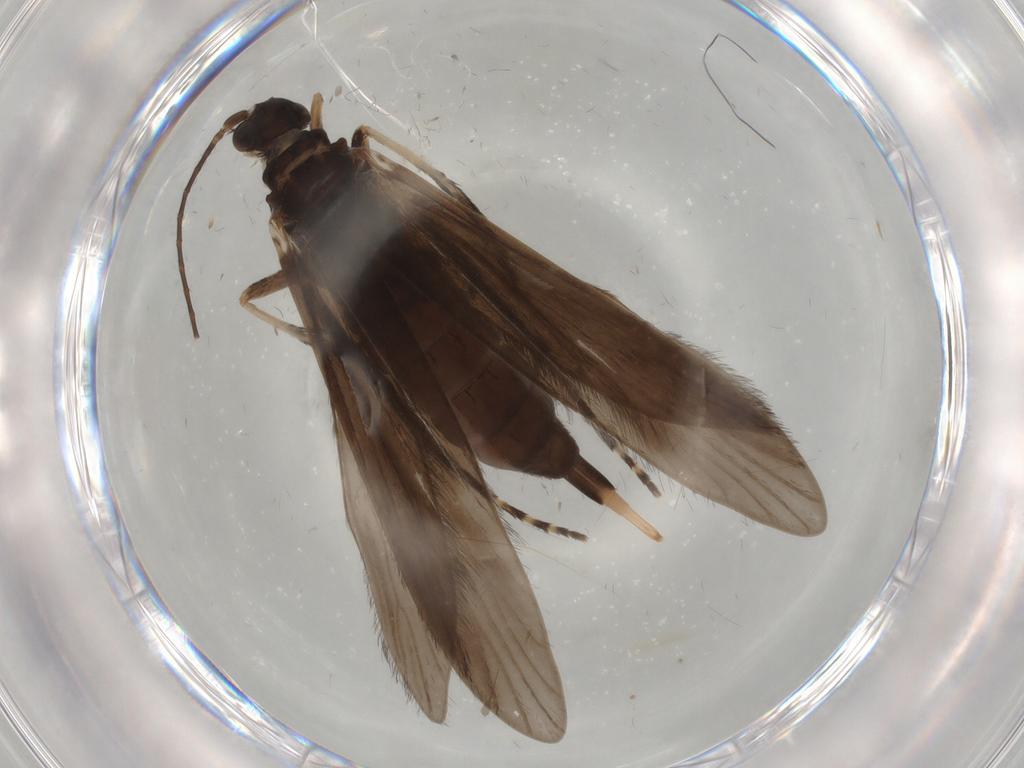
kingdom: Animalia
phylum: Arthropoda
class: Insecta
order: Trichoptera
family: Xiphocentronidae
